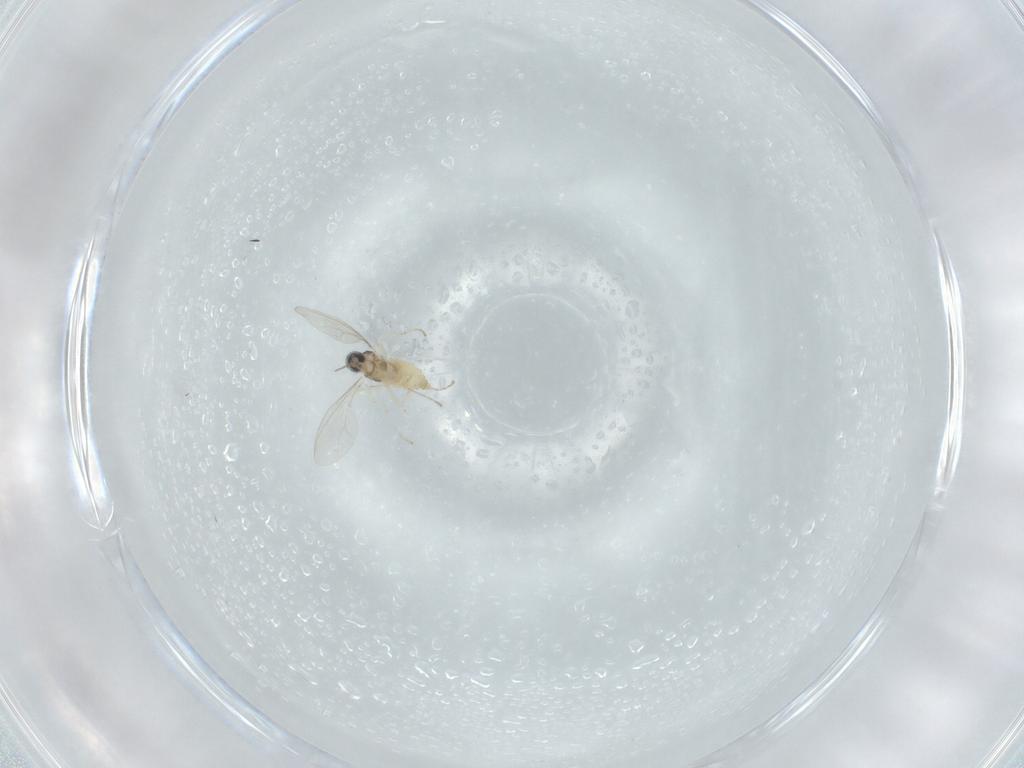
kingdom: Animalia
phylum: Arthropoda
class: Insecta
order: Diptera
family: Cecidomyiidae
